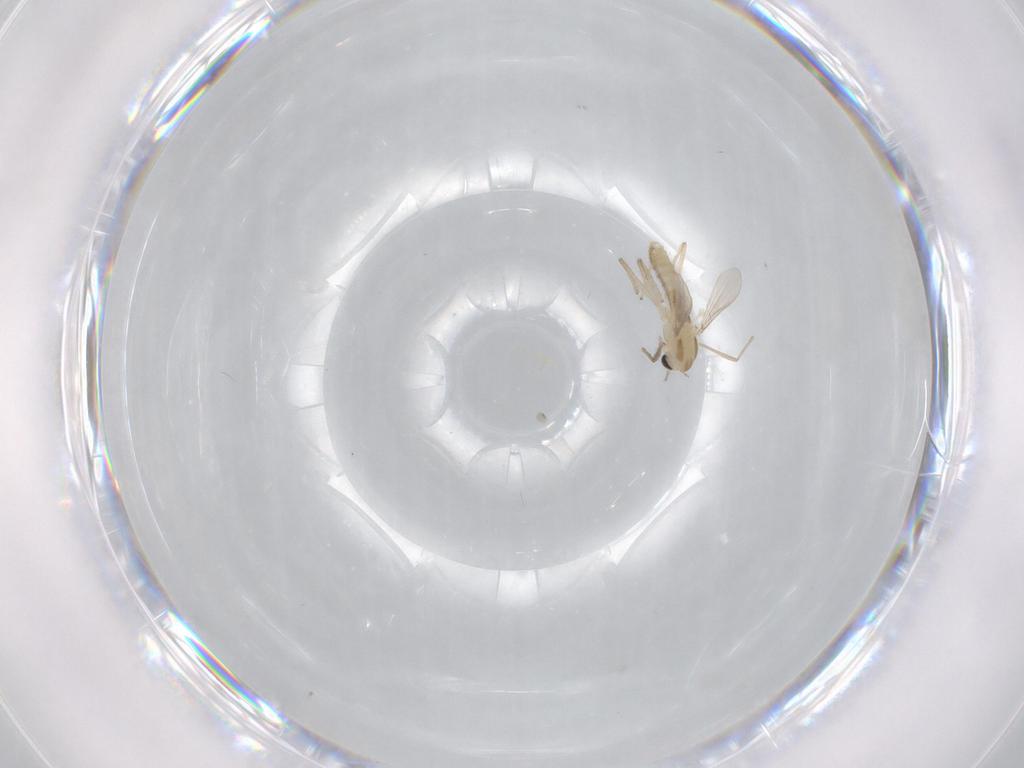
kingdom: Animalia
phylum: Arthropoda
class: Insecta
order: Diptera
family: Chironomidae
